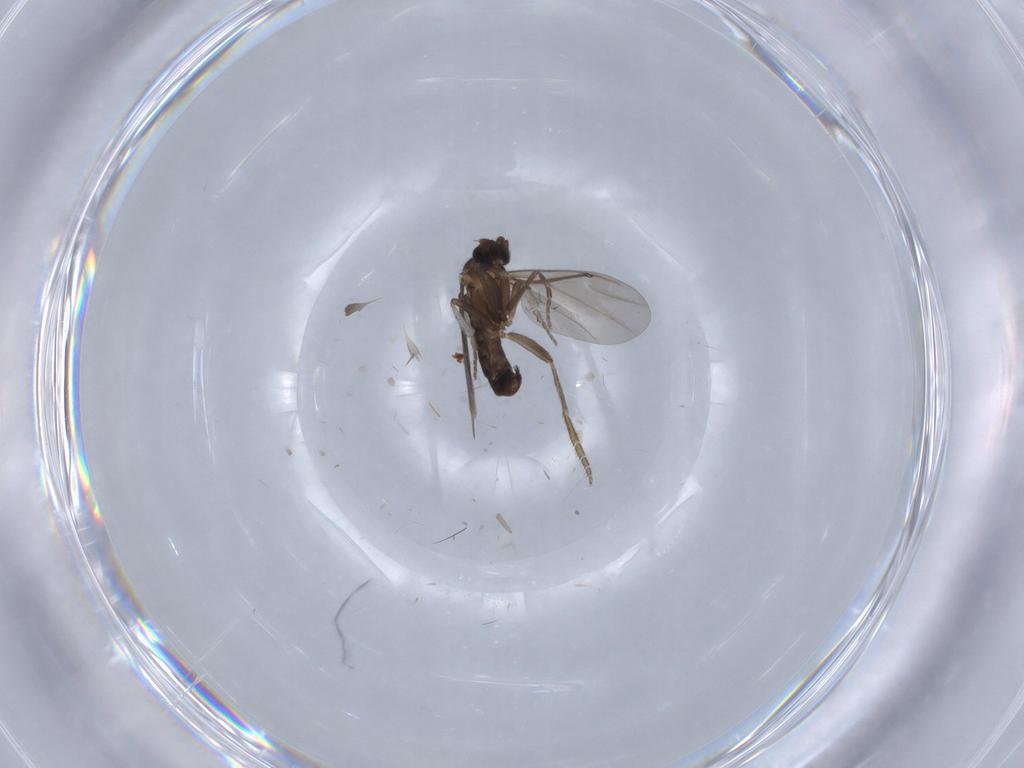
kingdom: Animalia
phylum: Arthropoda
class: Insecta
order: Diptera
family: Phoridae
